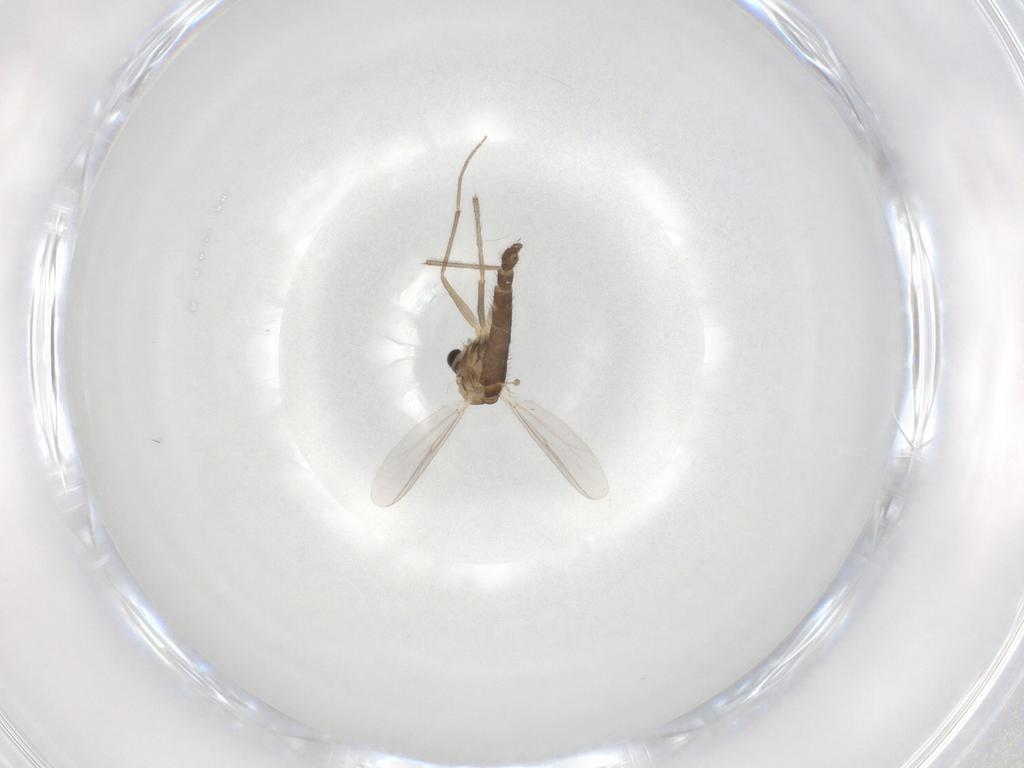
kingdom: Animalia
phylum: Arthropoda
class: Insecta
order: Diptera
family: Chironomidae
